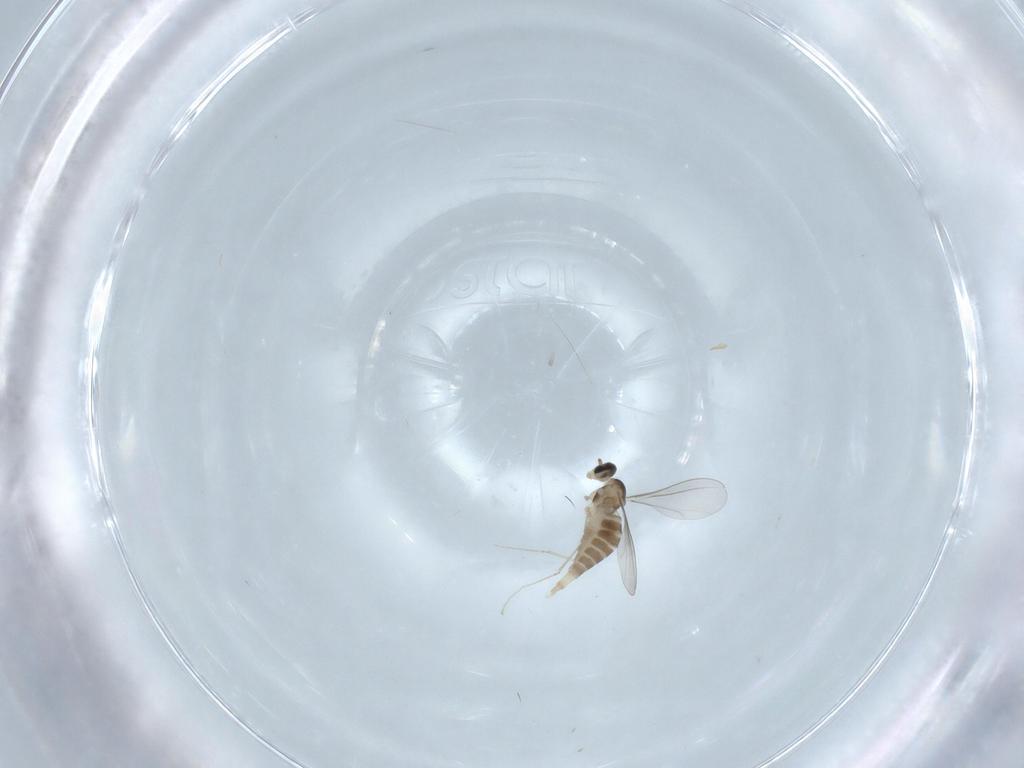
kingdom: Animalia
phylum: Arthropoda
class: Insecta
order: Diptera
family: Cecidomyiidae
